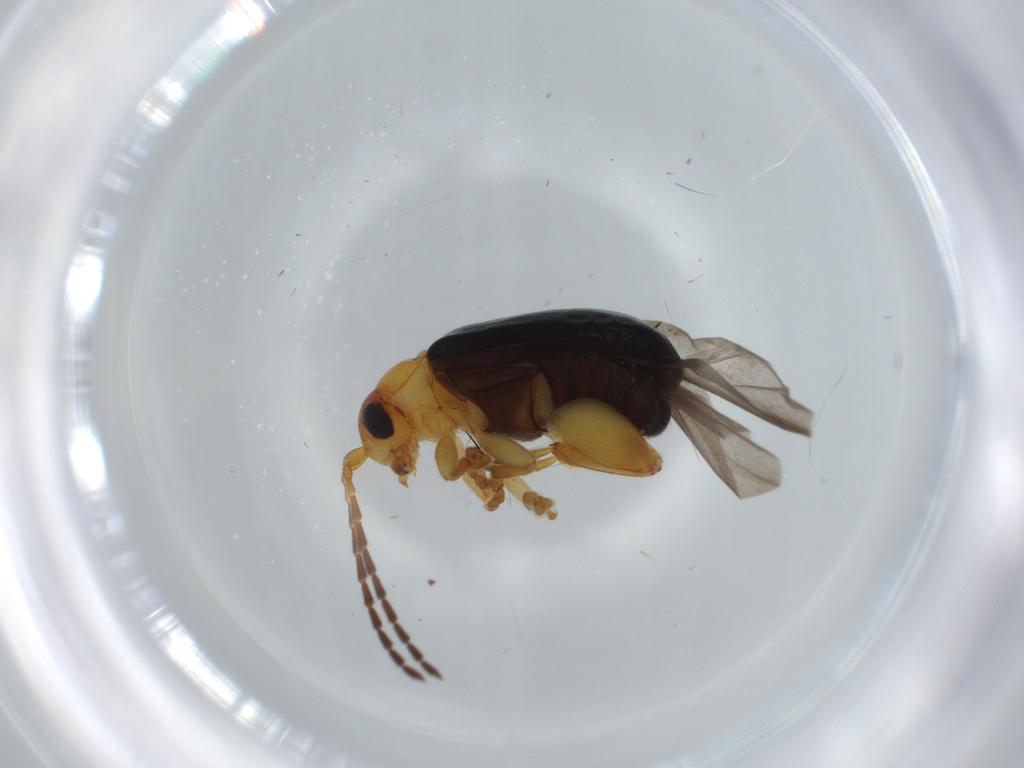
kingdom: Animalia
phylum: Arthropoda
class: Insecta
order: Coleoptera
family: Chrysomelidae
